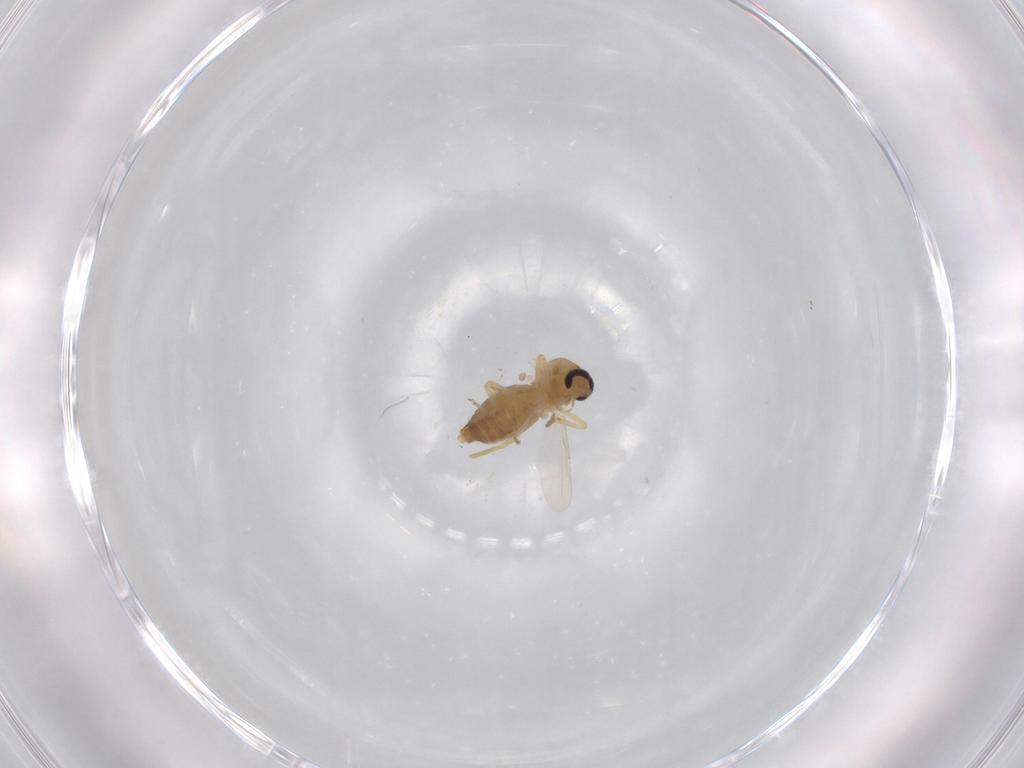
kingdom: Animalia
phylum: Arthropoda
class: Insecta
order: Diptera
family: Ceratopogonidae
